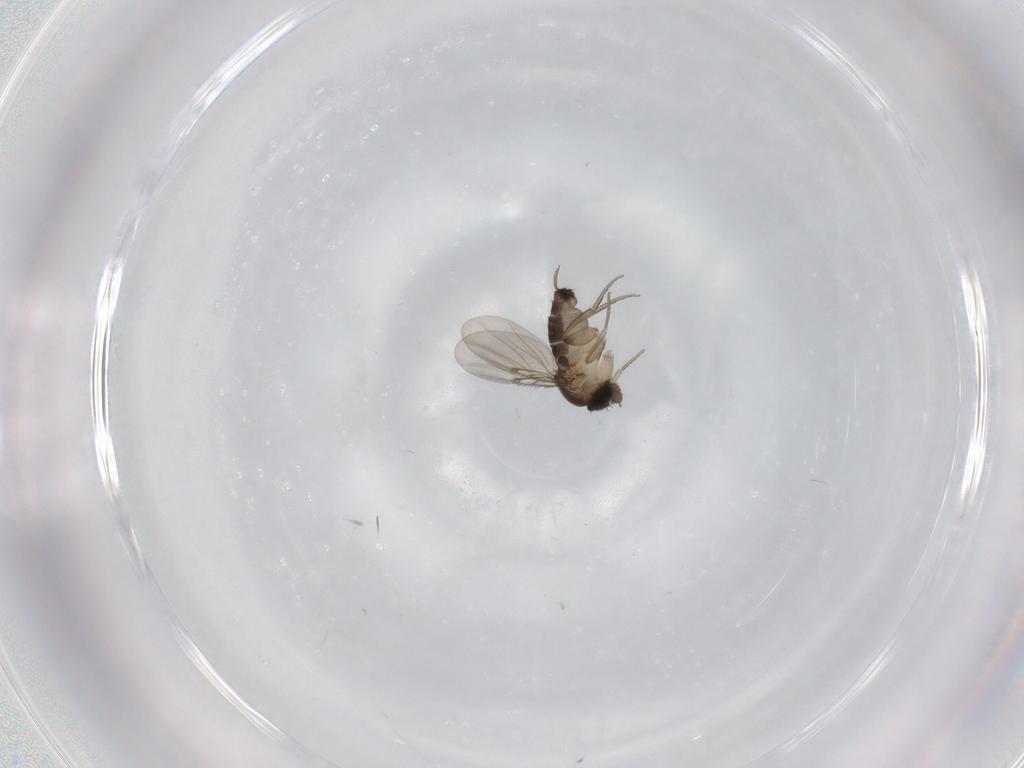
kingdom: Animalia
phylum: Arthropoda
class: Insecta
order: Diptera
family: Phoridae
